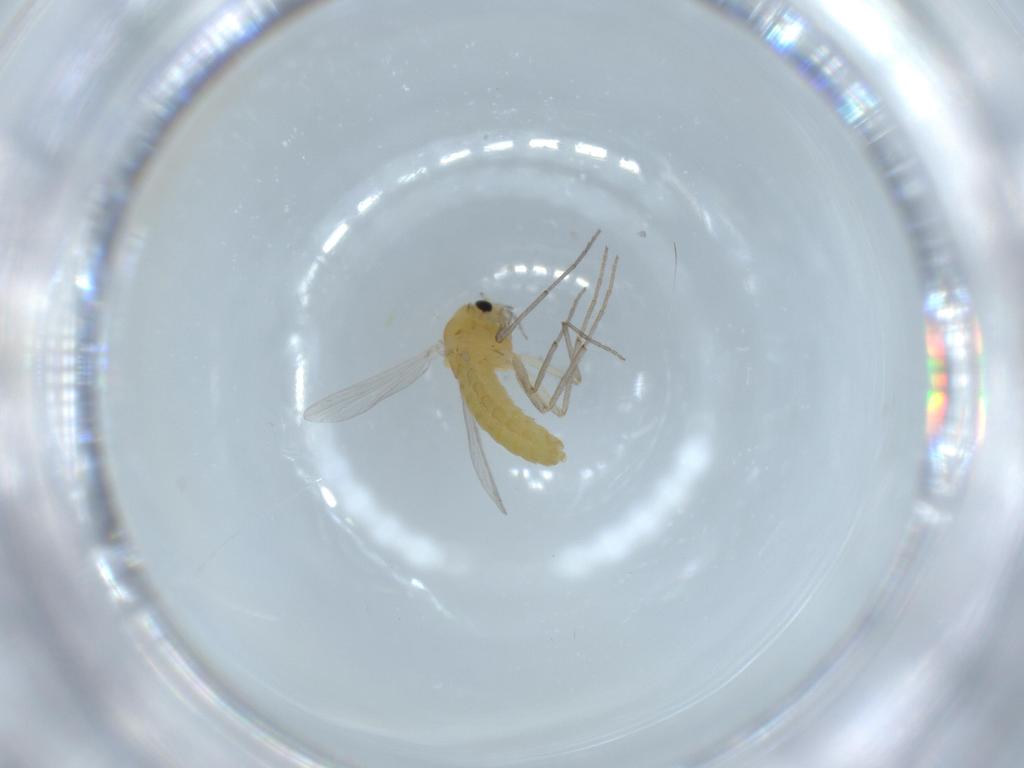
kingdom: Animalia
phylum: Arthropoda
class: Insecta
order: Diptera
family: Chironomidae
